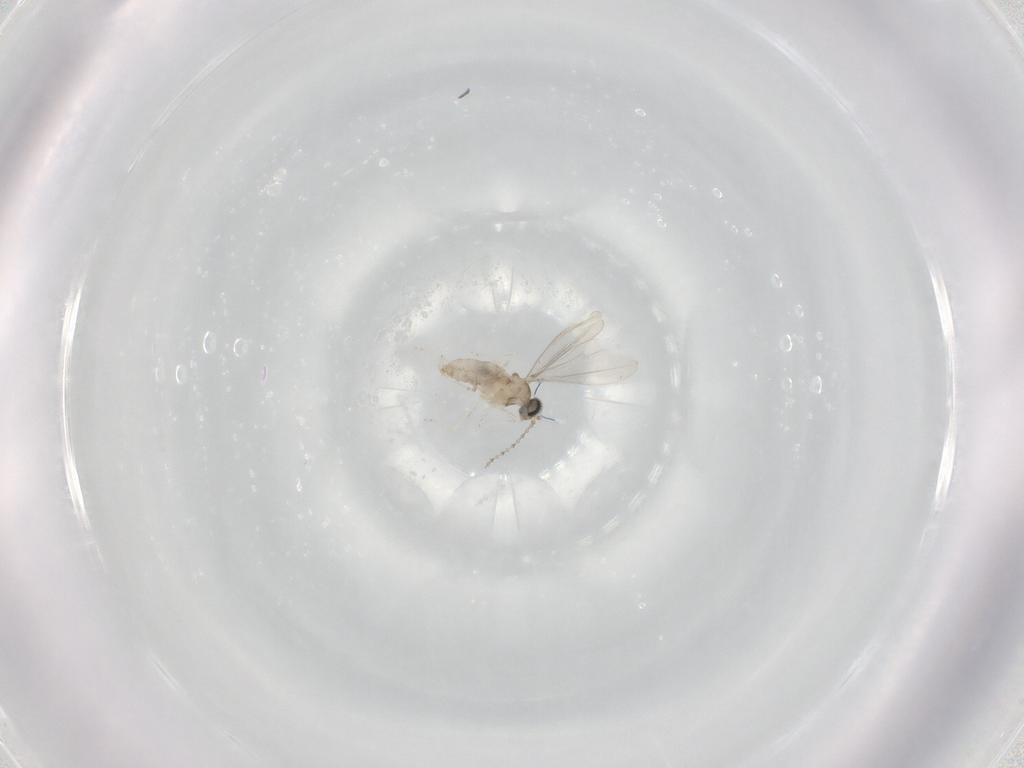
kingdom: Animalia
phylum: Arthropoda
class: Insecta
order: Diptera
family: Chironomidae
